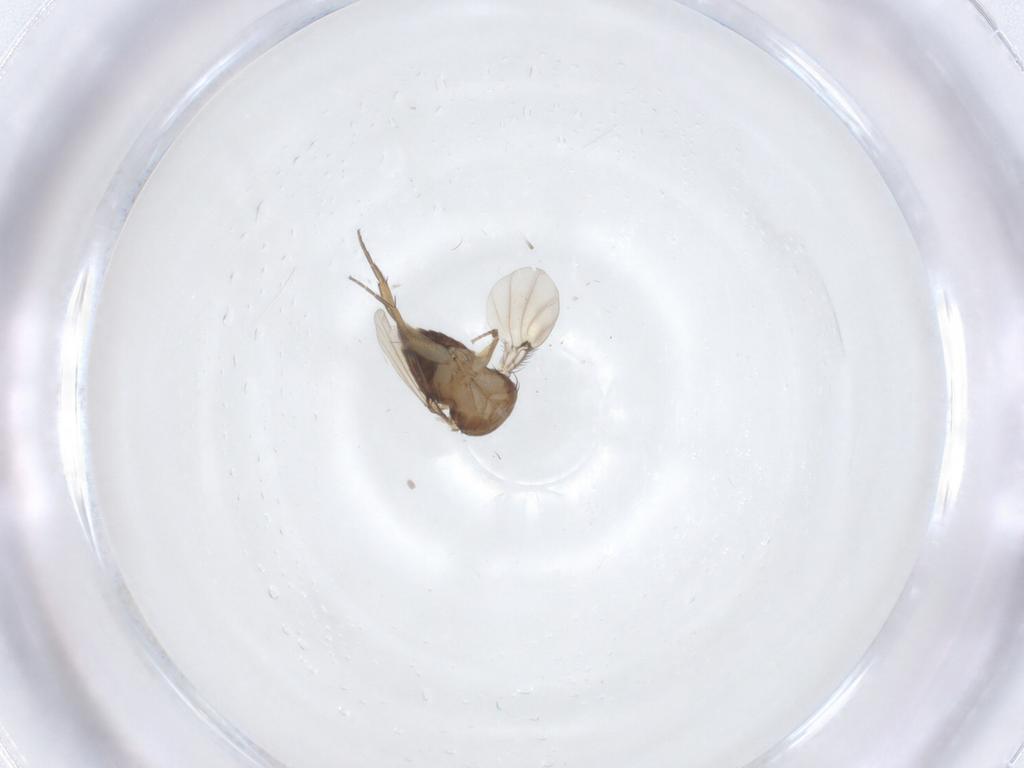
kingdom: Animalia
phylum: Arthropoda
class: Insecta
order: Diptera
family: Phoridae
